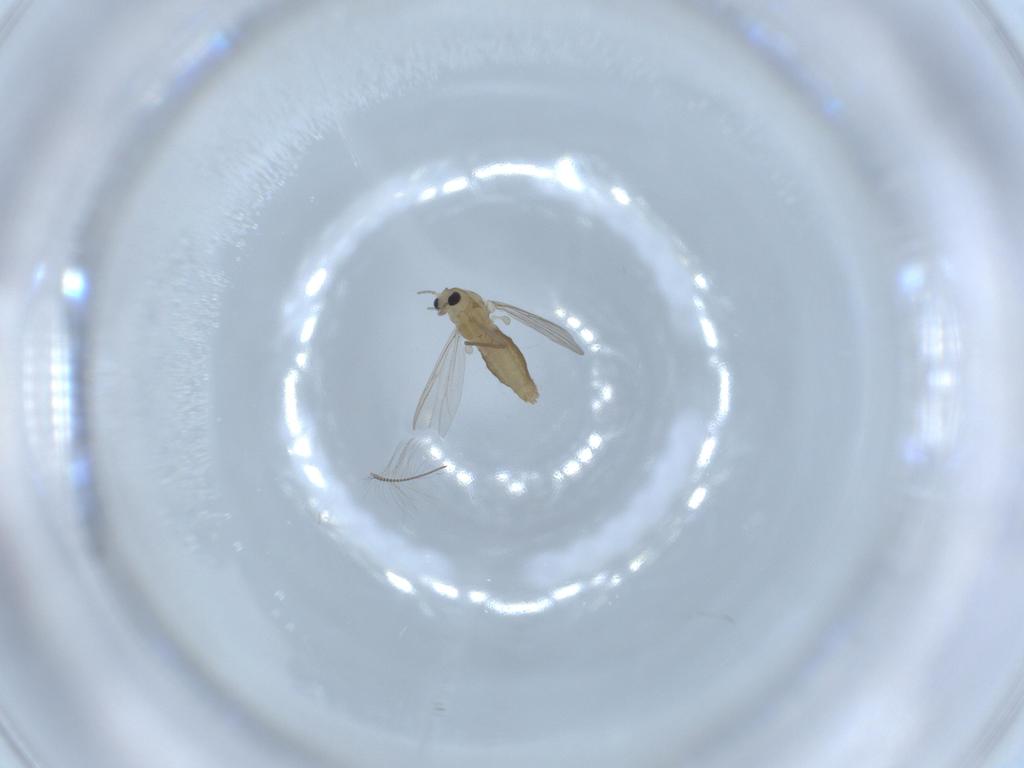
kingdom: Animalia
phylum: Arthropoda
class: Insecta
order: Diptera
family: Chironomidae
